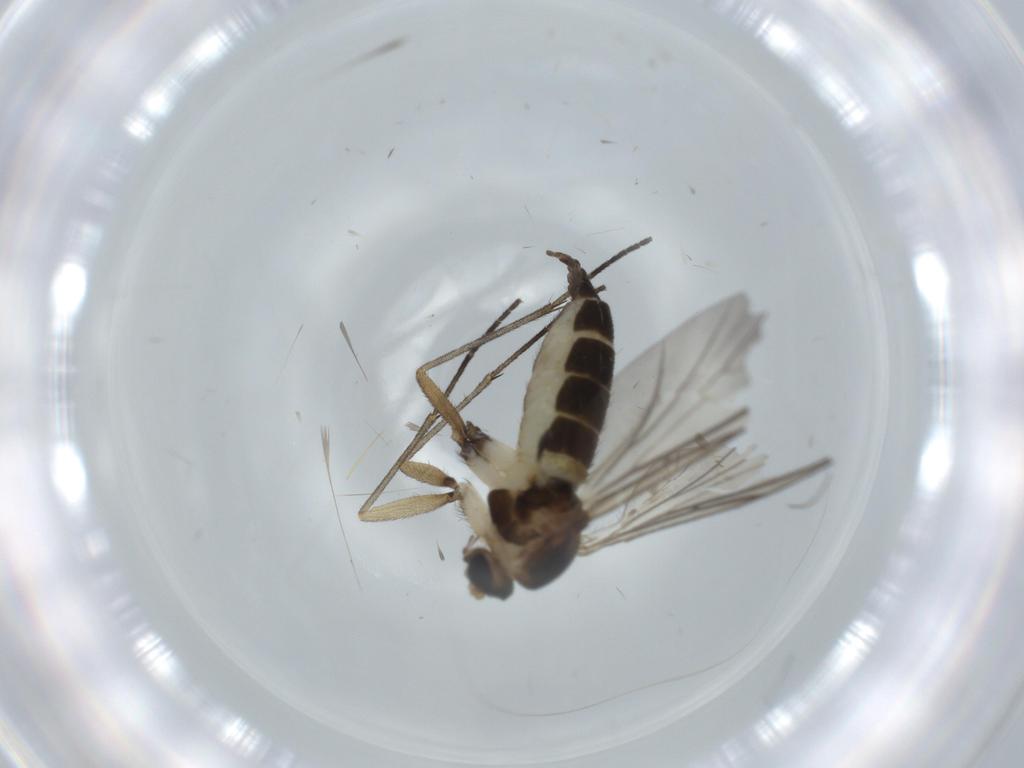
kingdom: Animalia
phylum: Arthropoda
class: Insecta
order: Diptera
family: Sciaridae
